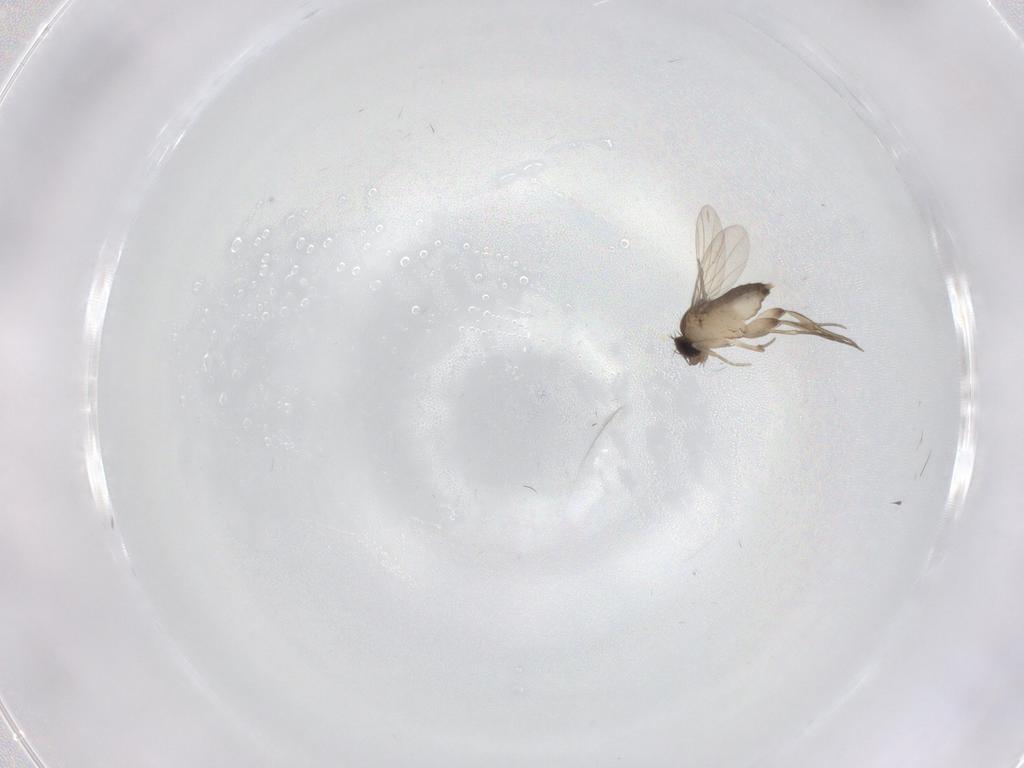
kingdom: Animalia
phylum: Arthropoda
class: Insecta
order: Diptera
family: Phoridae
